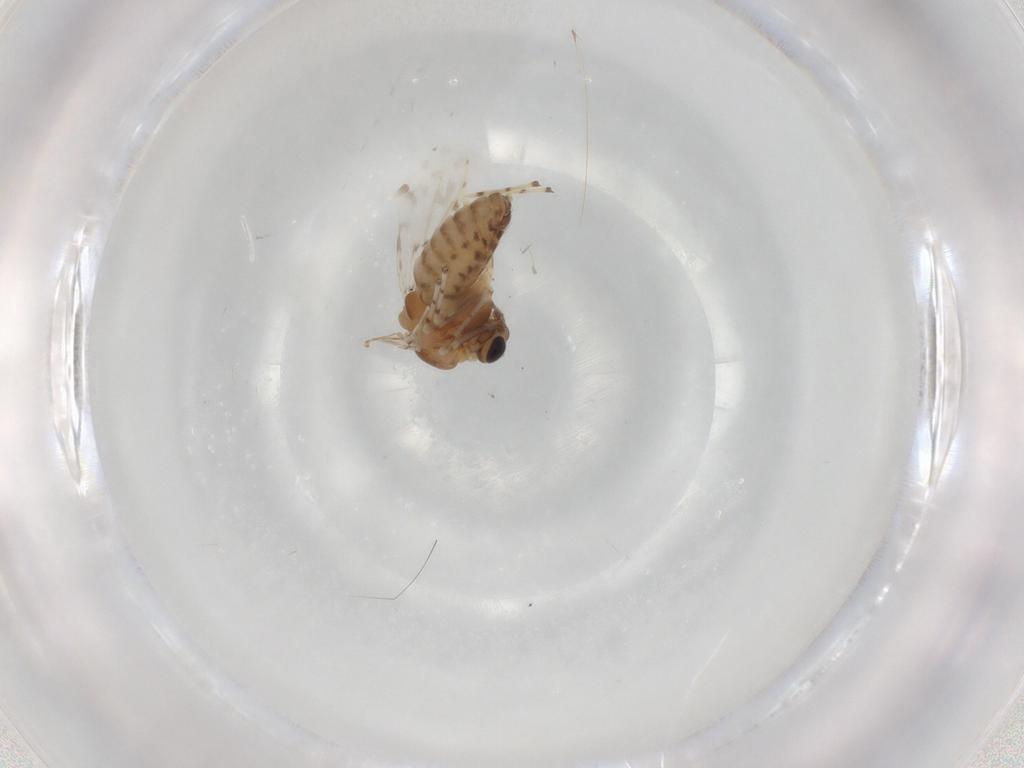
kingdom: Animalia
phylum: Arthropoda
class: Insecta
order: Diptera
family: Chironomidae
